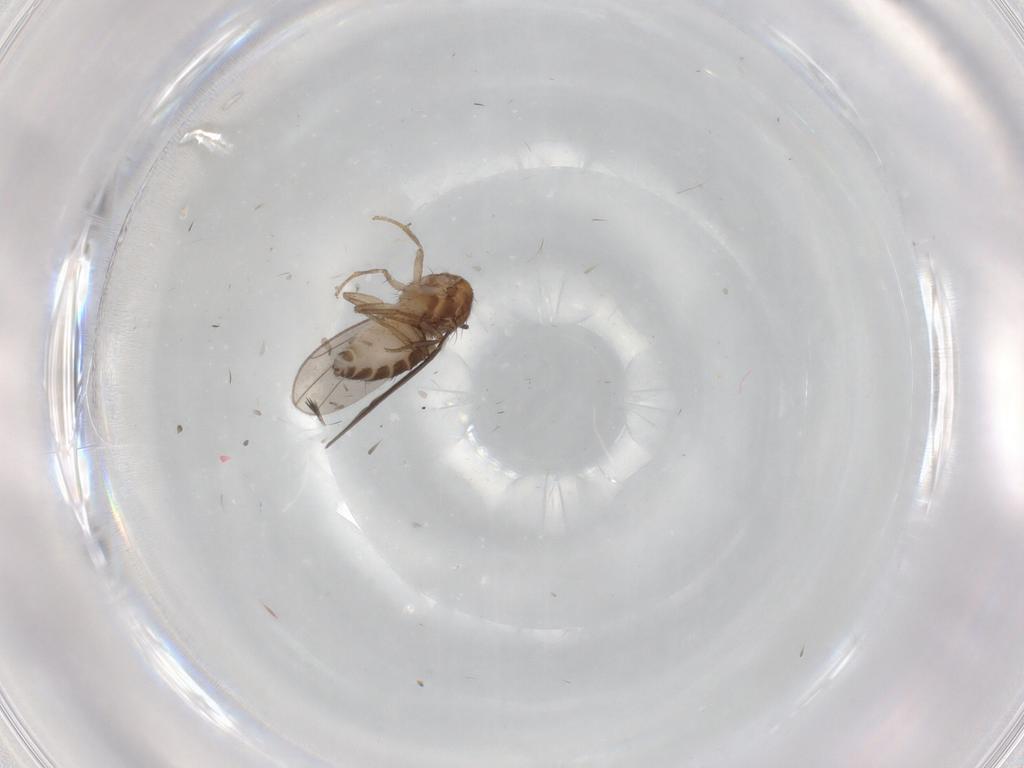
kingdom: Animalia
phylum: Arthropoda
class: Insecta
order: Diptera
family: Drosophilidae
